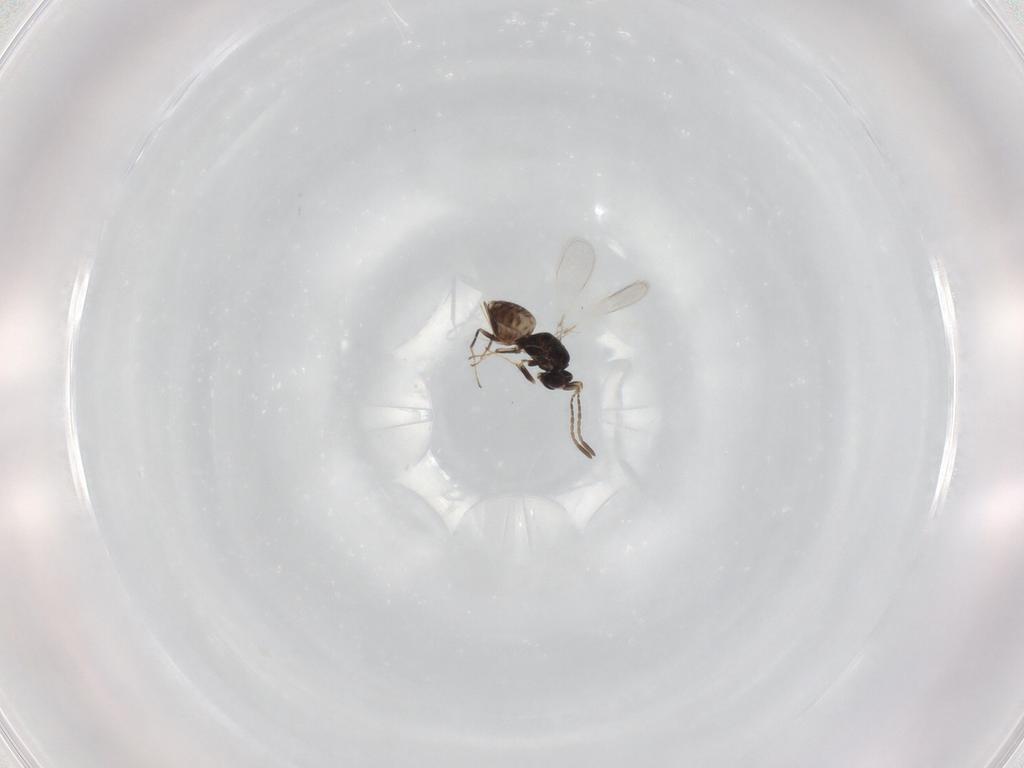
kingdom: Animalia
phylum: Arthropoda
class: Insecta
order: Hymenoptera
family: Mymaridae
